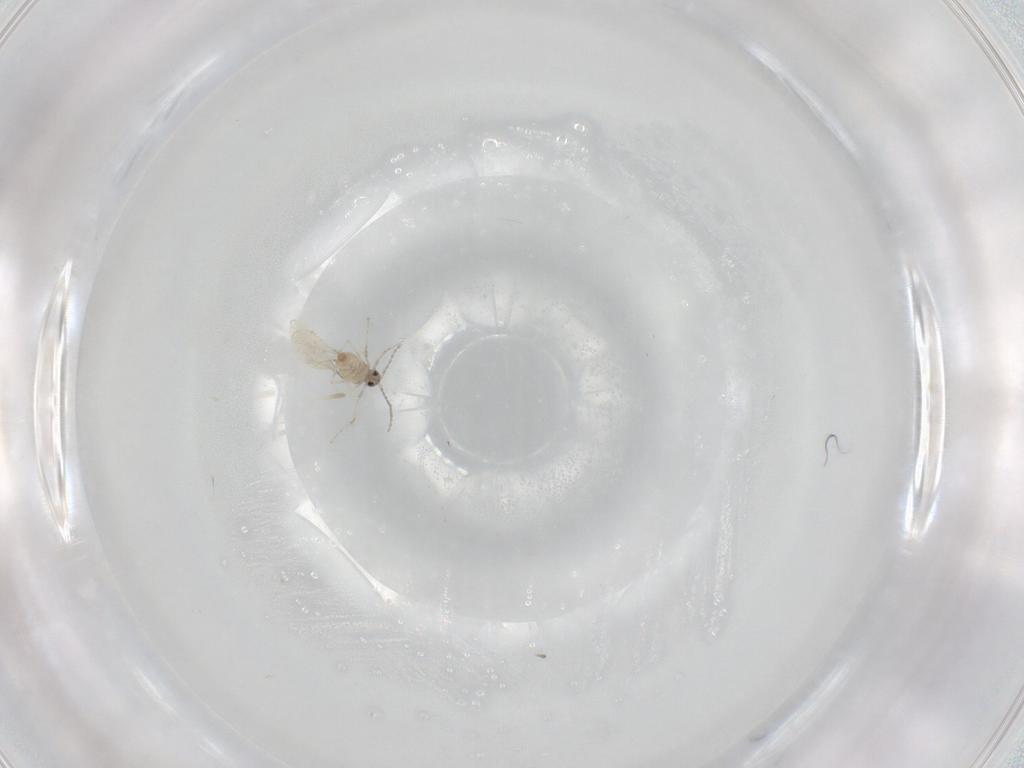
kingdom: Animalia
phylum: Arthropoda
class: Insecta
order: Diptera
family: Cecidomyiidae
